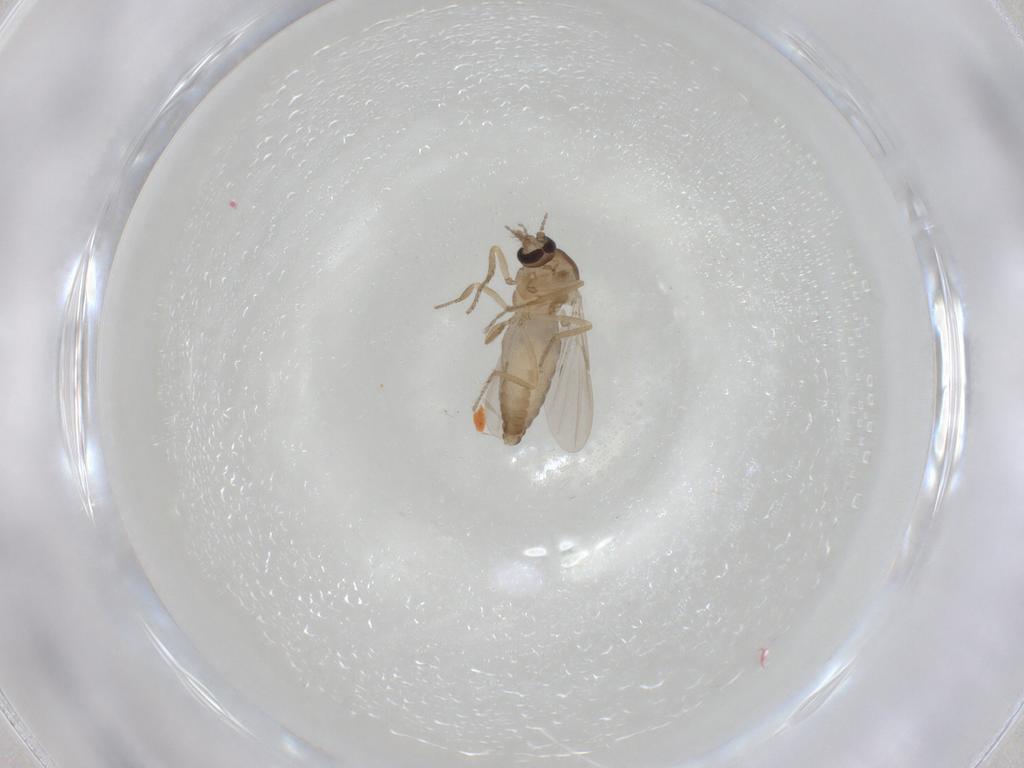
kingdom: Animalia
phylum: Arthropoda
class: Insecta
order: Diptera
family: Ceratopogonidae
